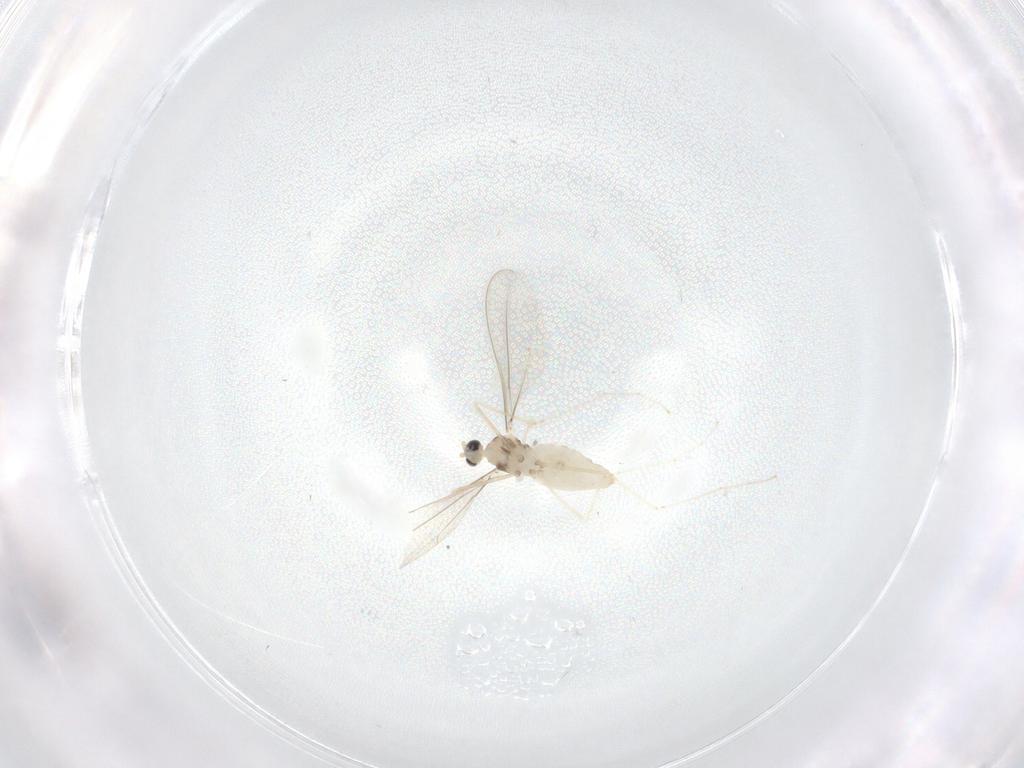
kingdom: Animalia
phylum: Arthropoda
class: Insecta
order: Diptera
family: Cecidomyiidae
